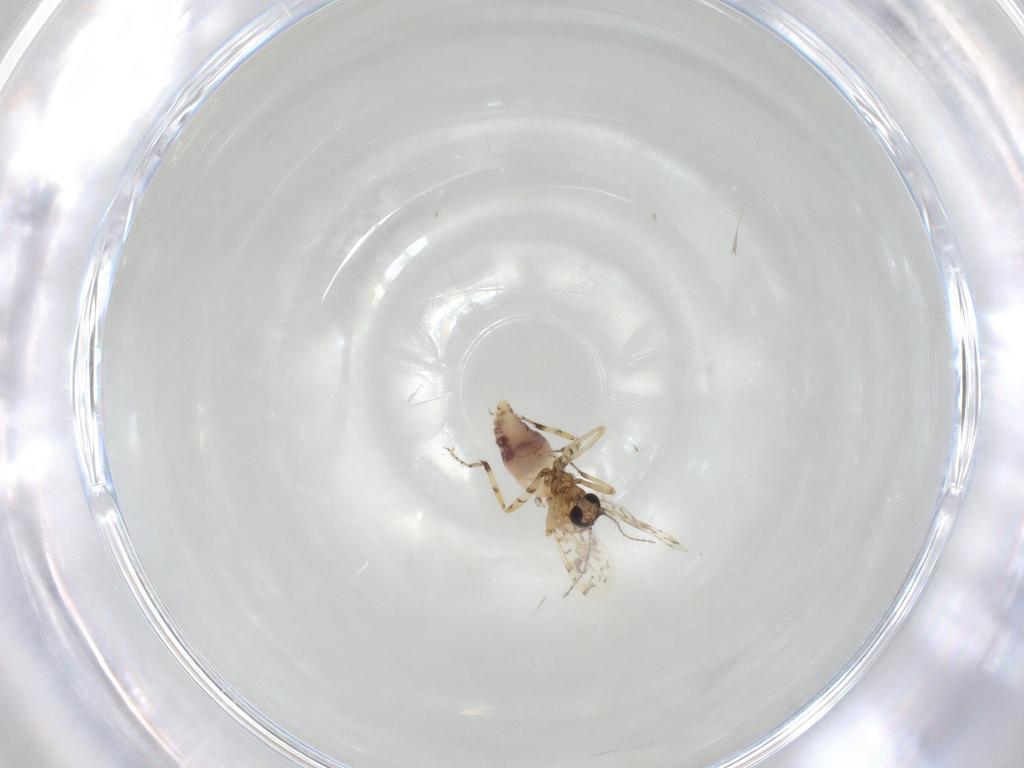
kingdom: Animalia
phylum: Arthropoda
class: Insecta
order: Diptera
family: Ceratopogonidae
